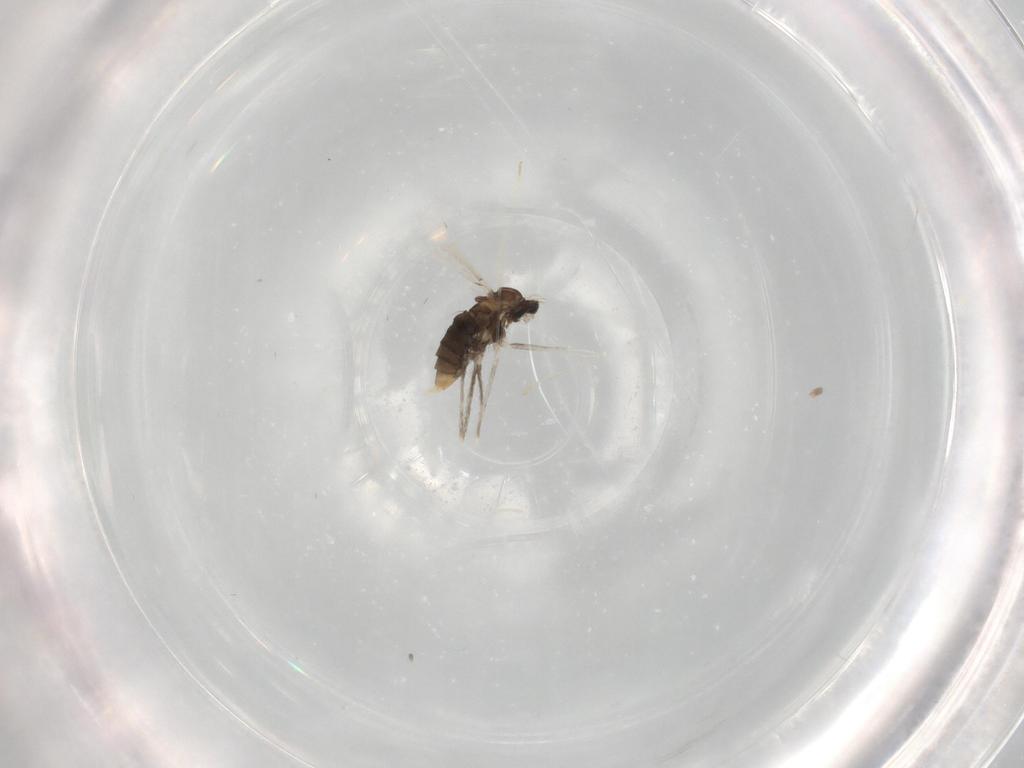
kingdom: Animalia
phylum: Arthropoda
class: Insecta
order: Diptera
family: Cecidomyiidae
